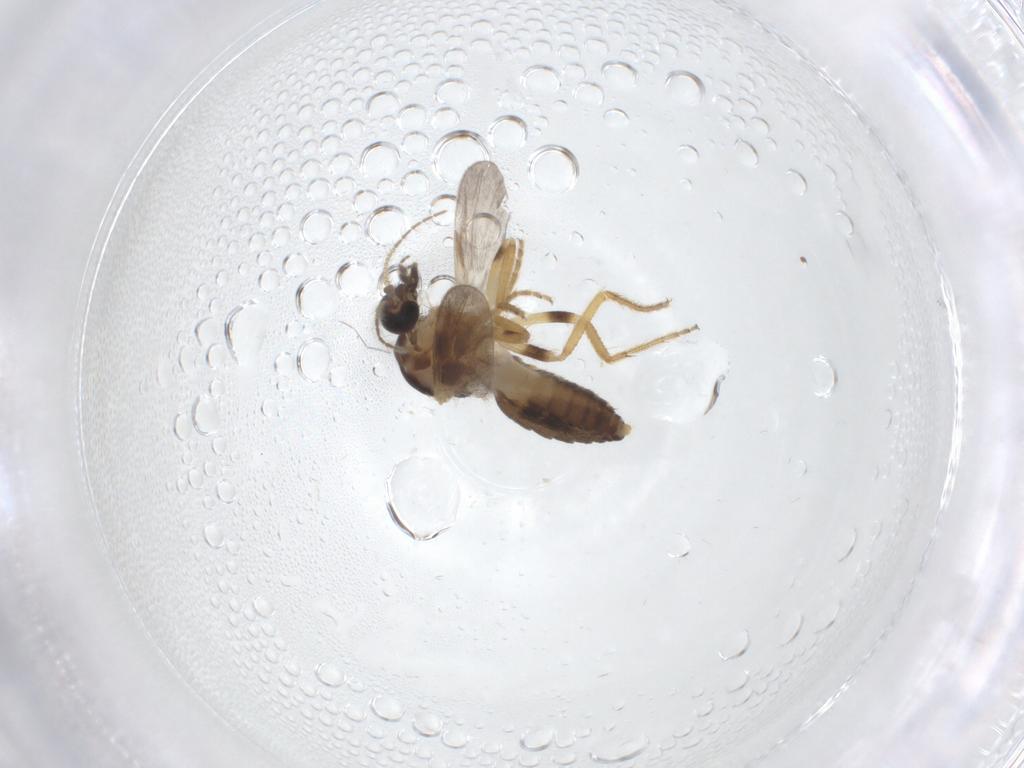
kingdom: Animalia
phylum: Arthropoda
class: Insecta
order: Diptera
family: Ceratopogonidae
